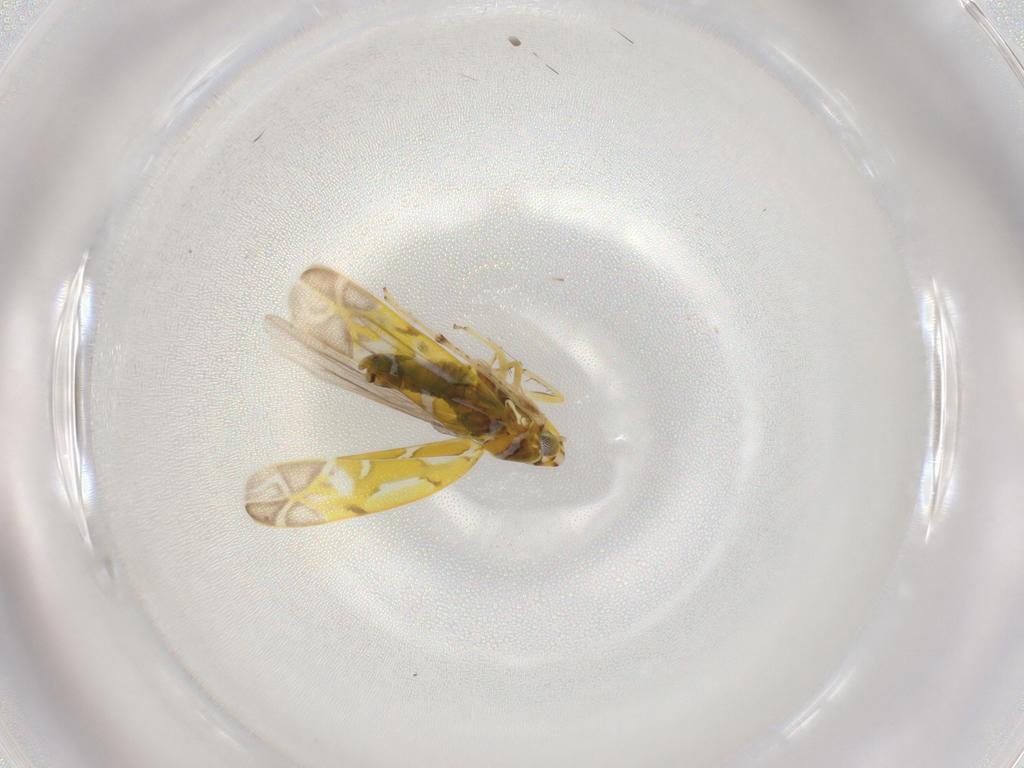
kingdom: Animalia
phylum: Arthropoda
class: Insecta
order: Hemiptera
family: Cicadellidae
